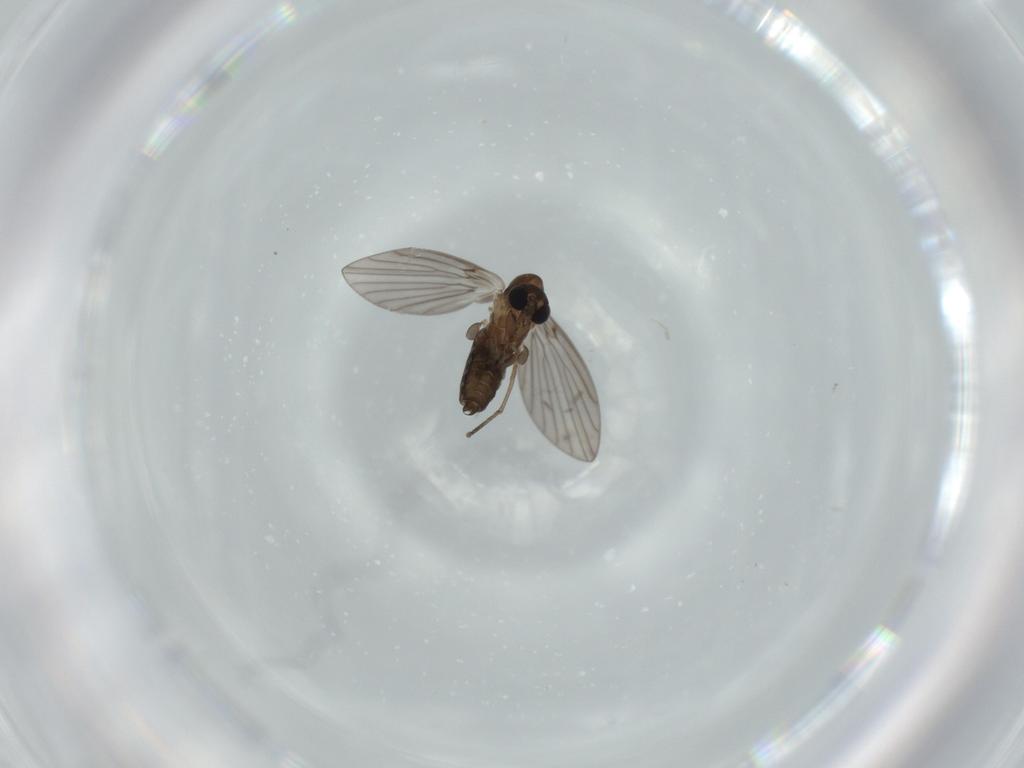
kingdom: Animalia
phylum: Arthropoda
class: Insecta
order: Diptera
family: Psychodidae
